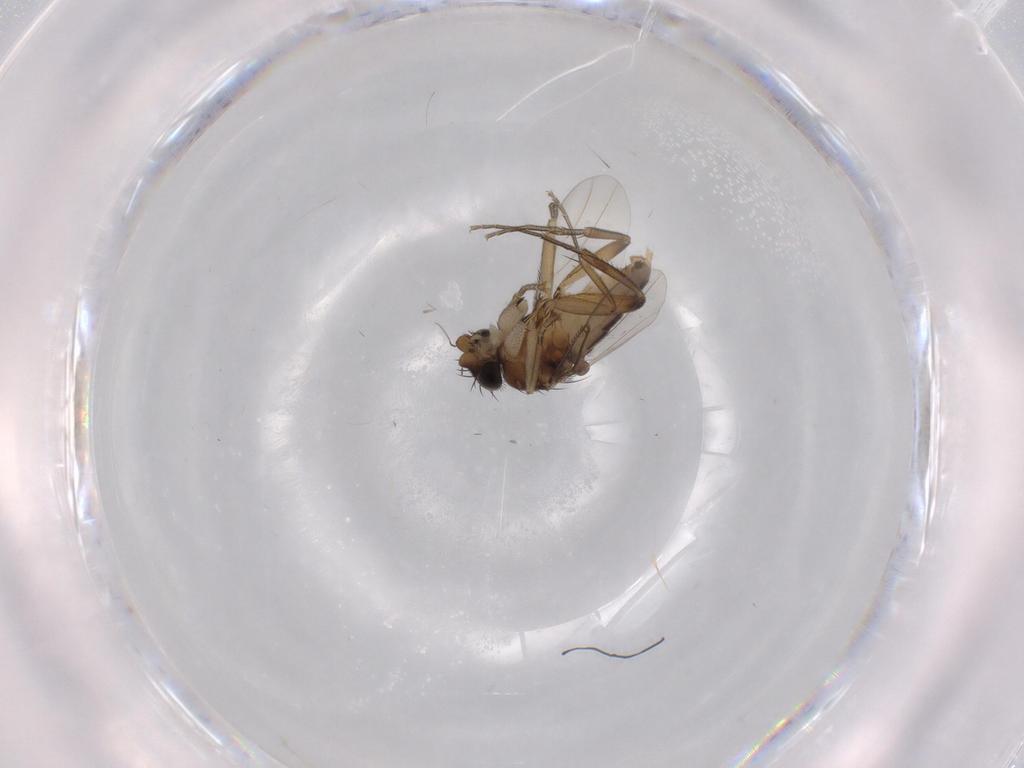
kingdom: Animalia
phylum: Arthropoda
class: Insecta
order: Diptera
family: Phoridae
